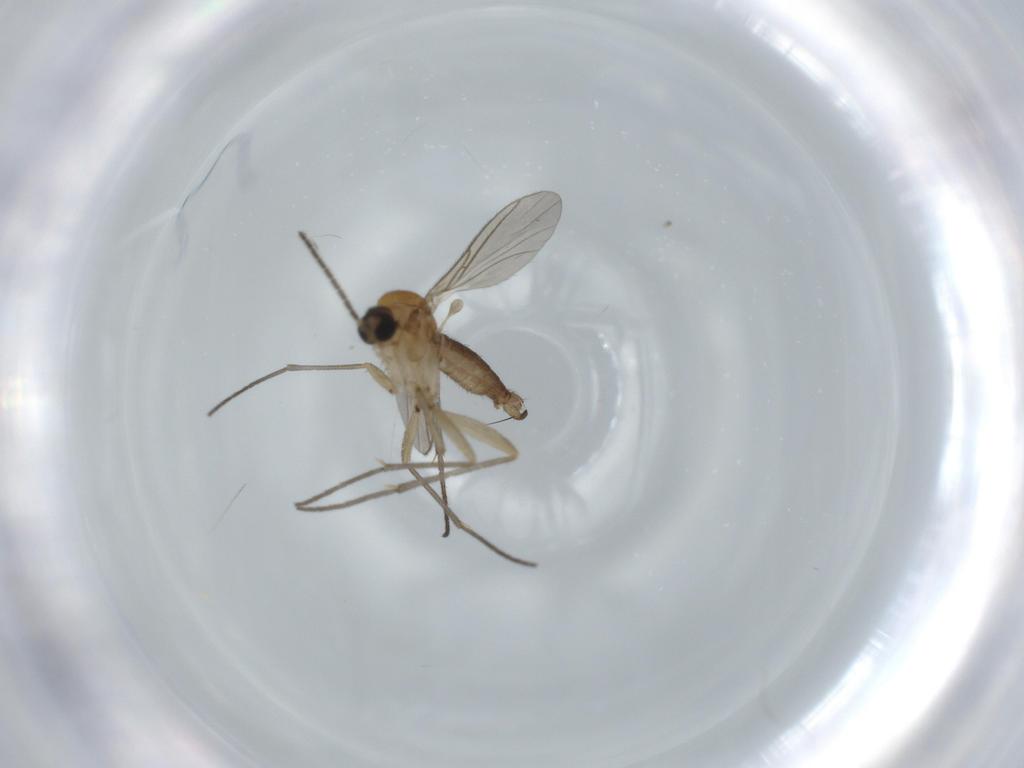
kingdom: Animalia
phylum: Arthropoda
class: Insecta
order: Diptera
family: Sciaridae
